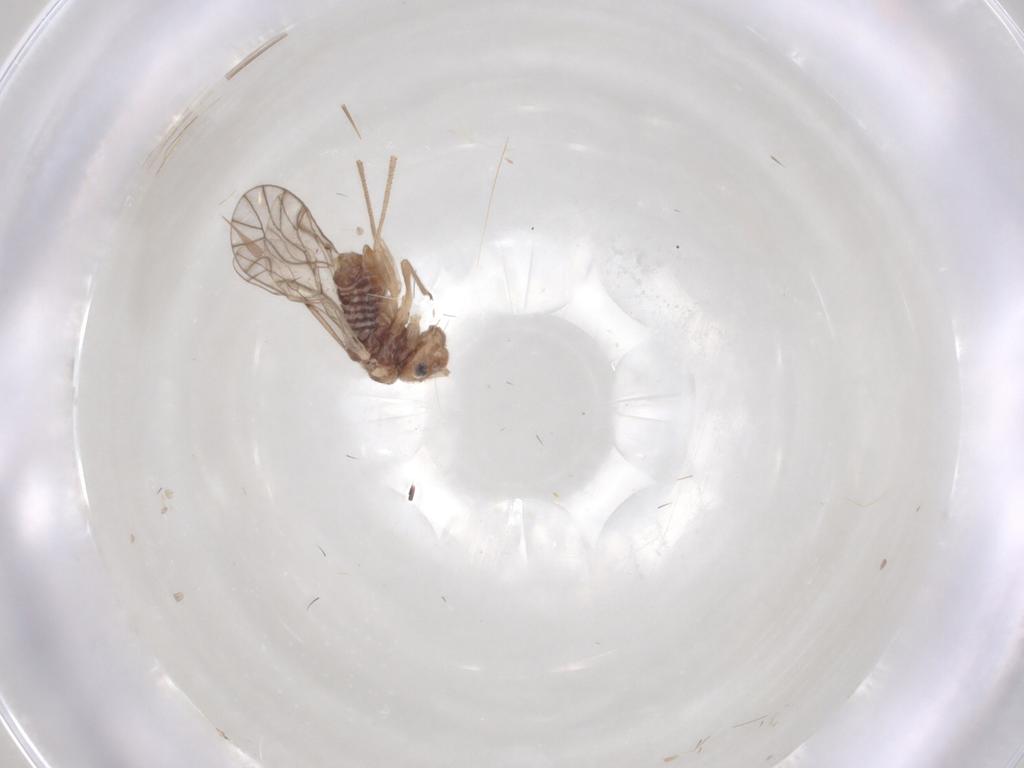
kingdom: Animalia
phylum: Arthropoda
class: Insecta
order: Psocodea
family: Lachesillidae
